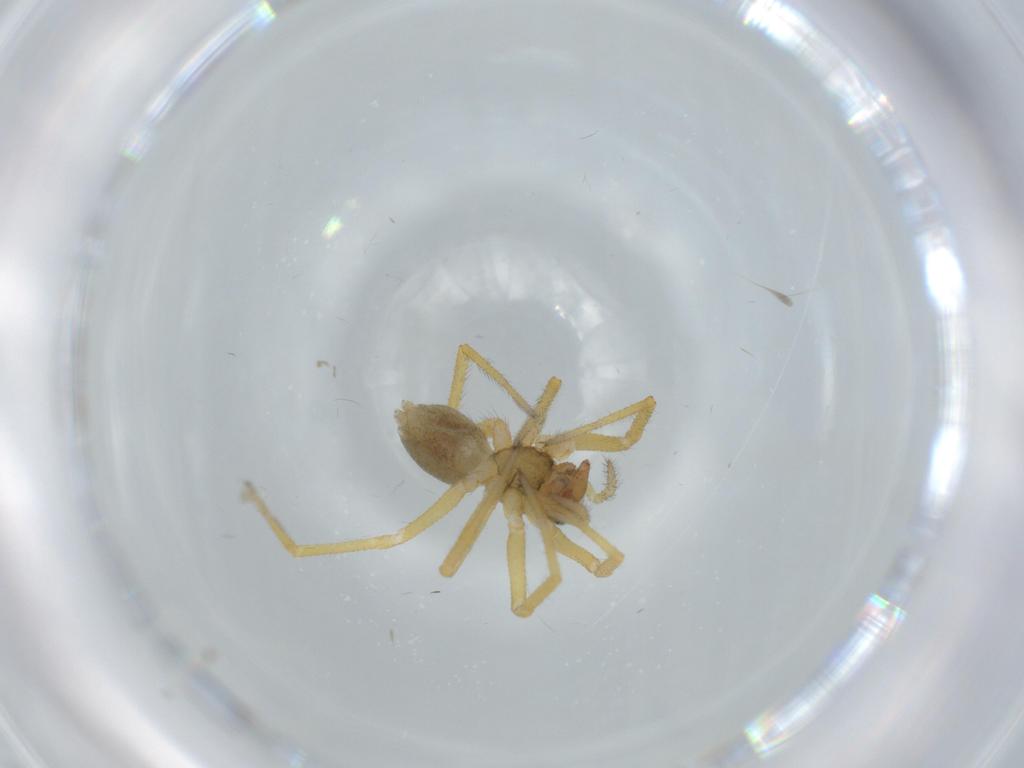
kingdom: Animalia
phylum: Arthropoda
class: Arachnida
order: Araneae
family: Linyphiidae
